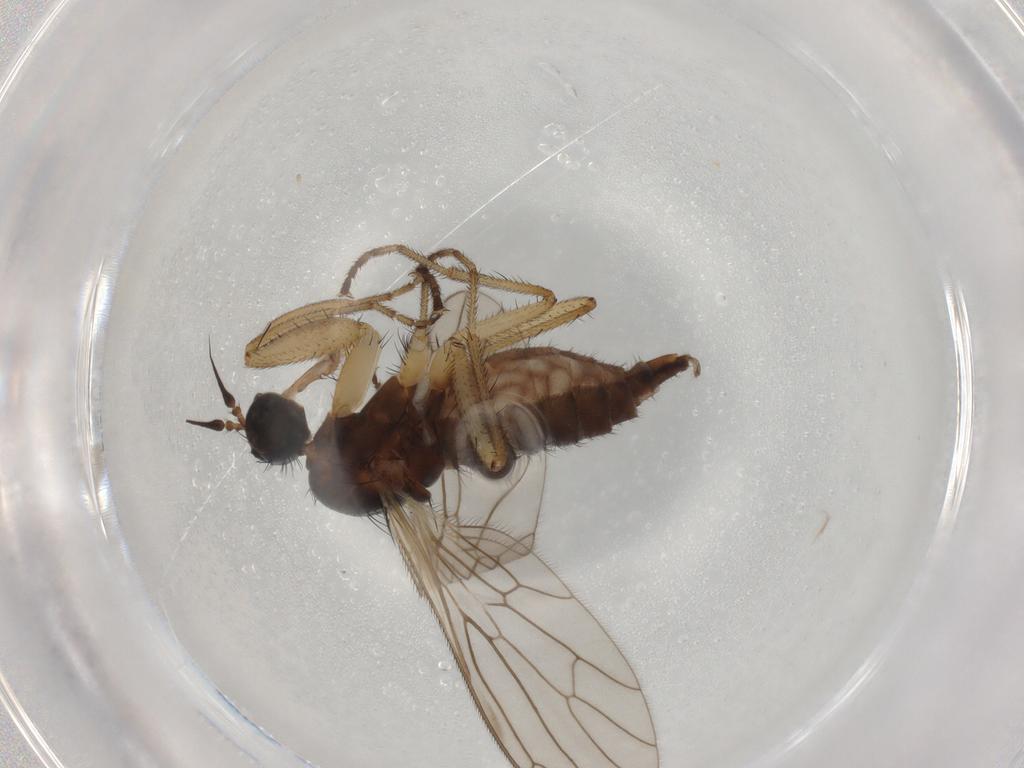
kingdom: Animalia
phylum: Arthropoda
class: Insecta
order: Diptera
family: Empididae
